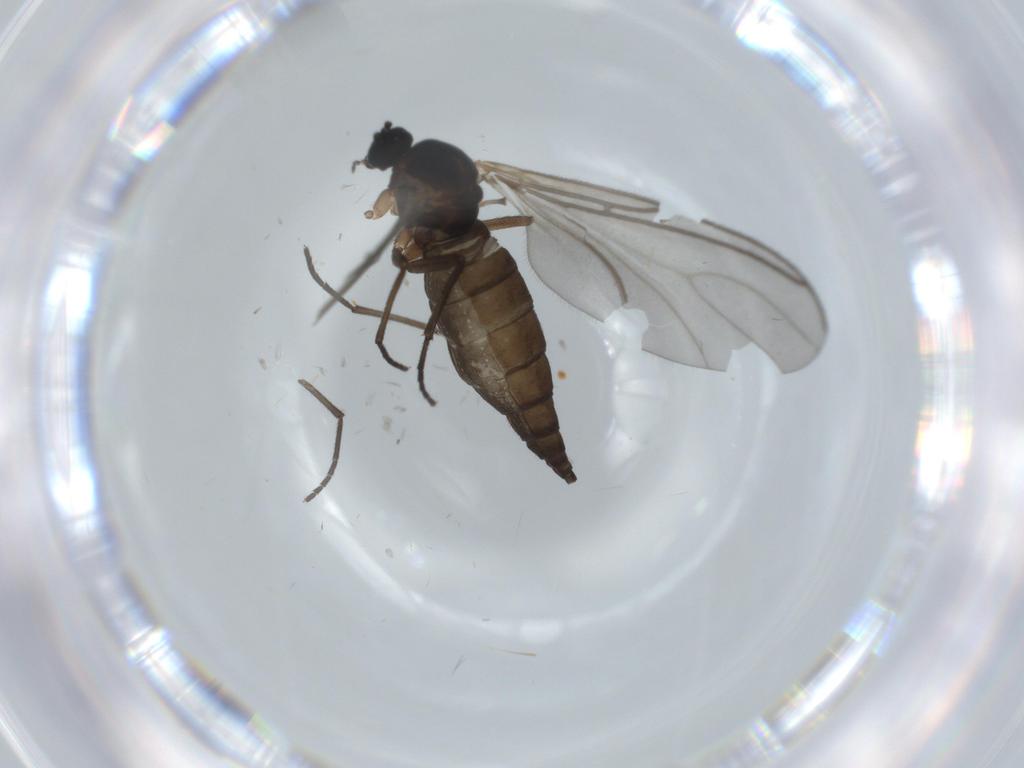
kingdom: Animalia
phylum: Arthropoda
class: Insecta
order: Diptera
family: Sciaridae
